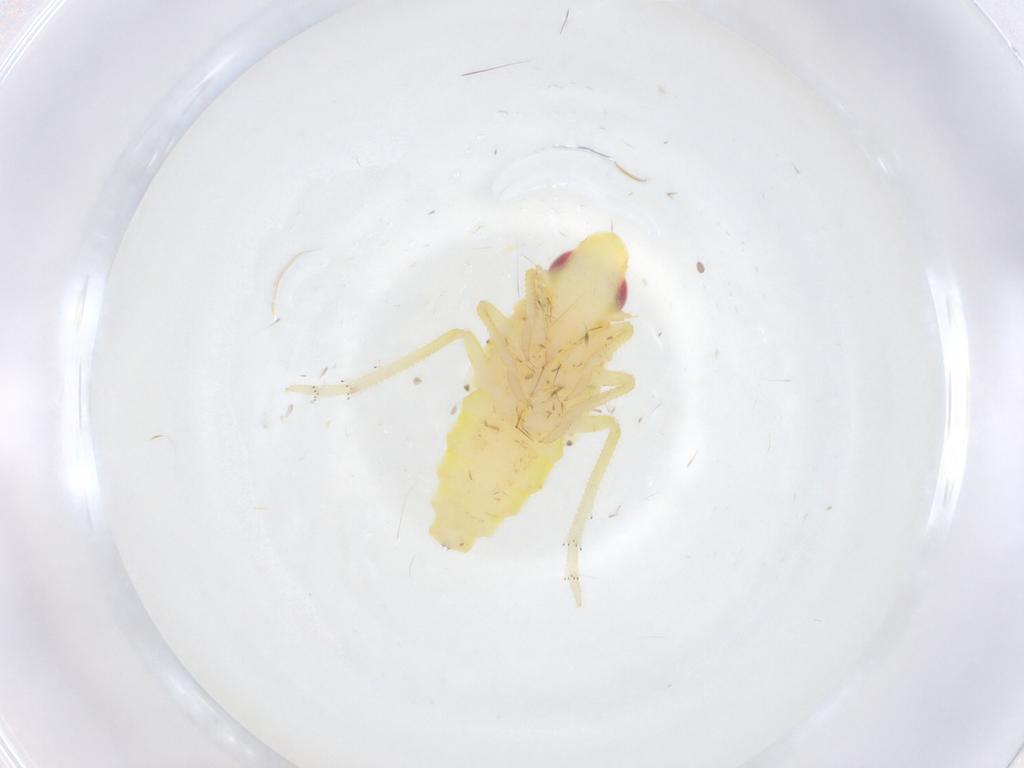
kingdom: Animalia
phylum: Arthropoda
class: Insecta
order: Hemiptera
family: Tropiduchidae
